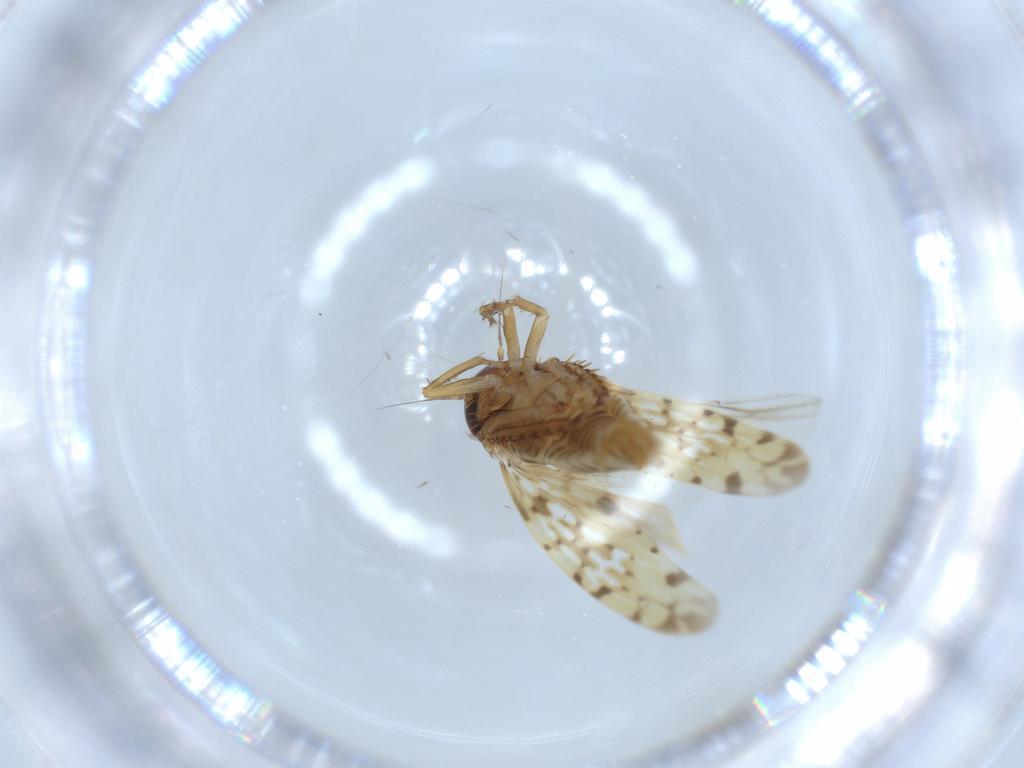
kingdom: Animalia
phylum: Arthropoda
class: Insecta
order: Hemiptera
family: Cicadellidae
